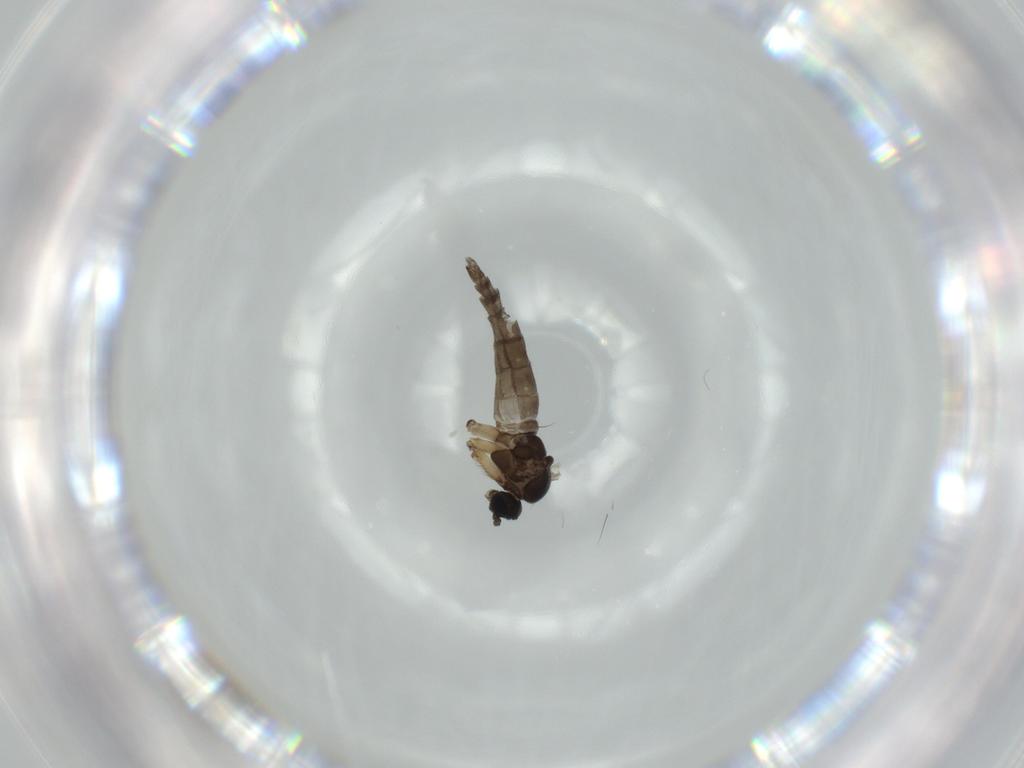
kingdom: Animalia
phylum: Arthropoda
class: Insecta
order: Diptera
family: Sciaridae
